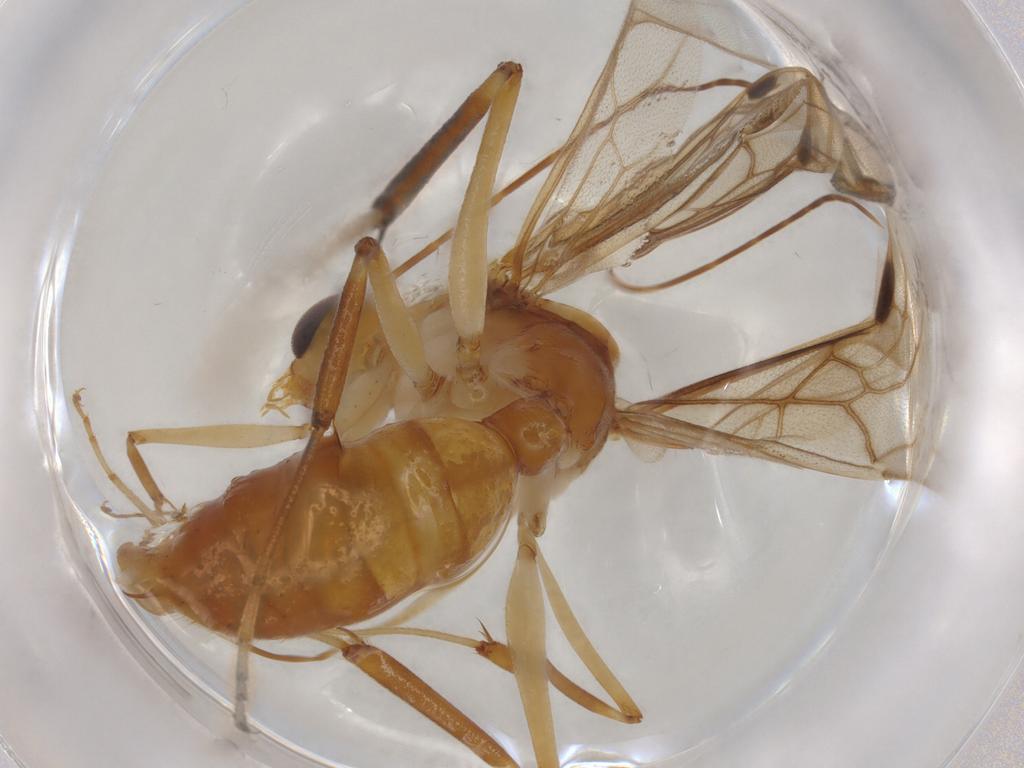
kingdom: Animalia
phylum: Arthropoda
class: Insecta
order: Hymenoptera
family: Formicidae
